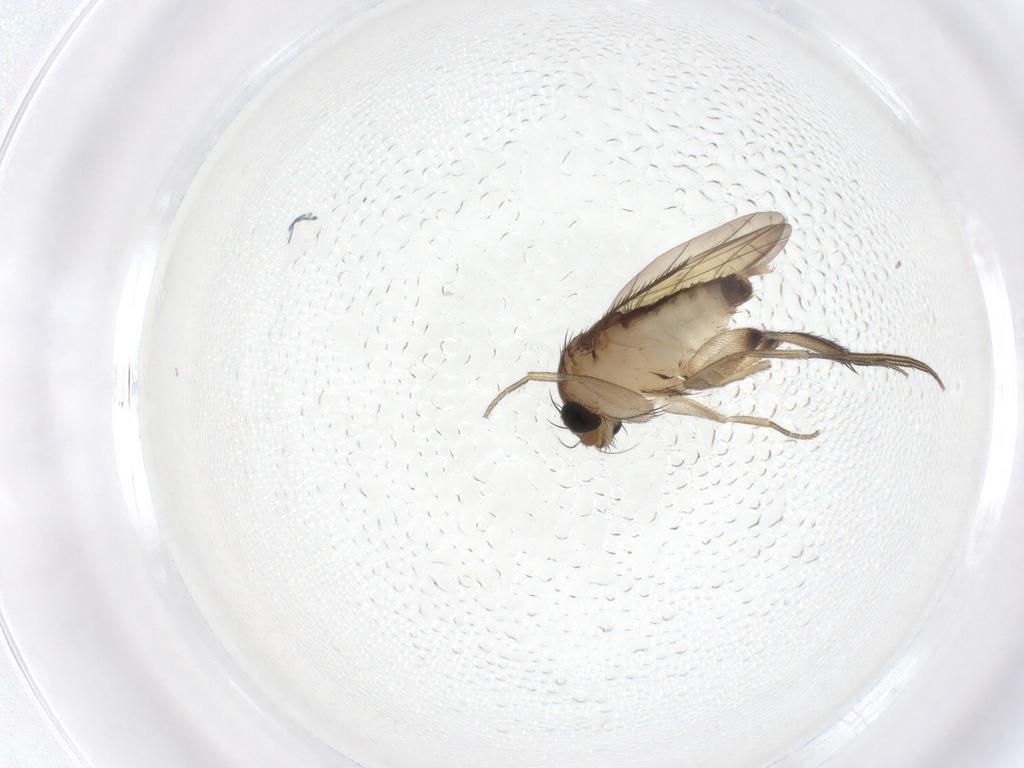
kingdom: Animalia
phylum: Arthropoda
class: Insecta
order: Diptera
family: Phoridae
